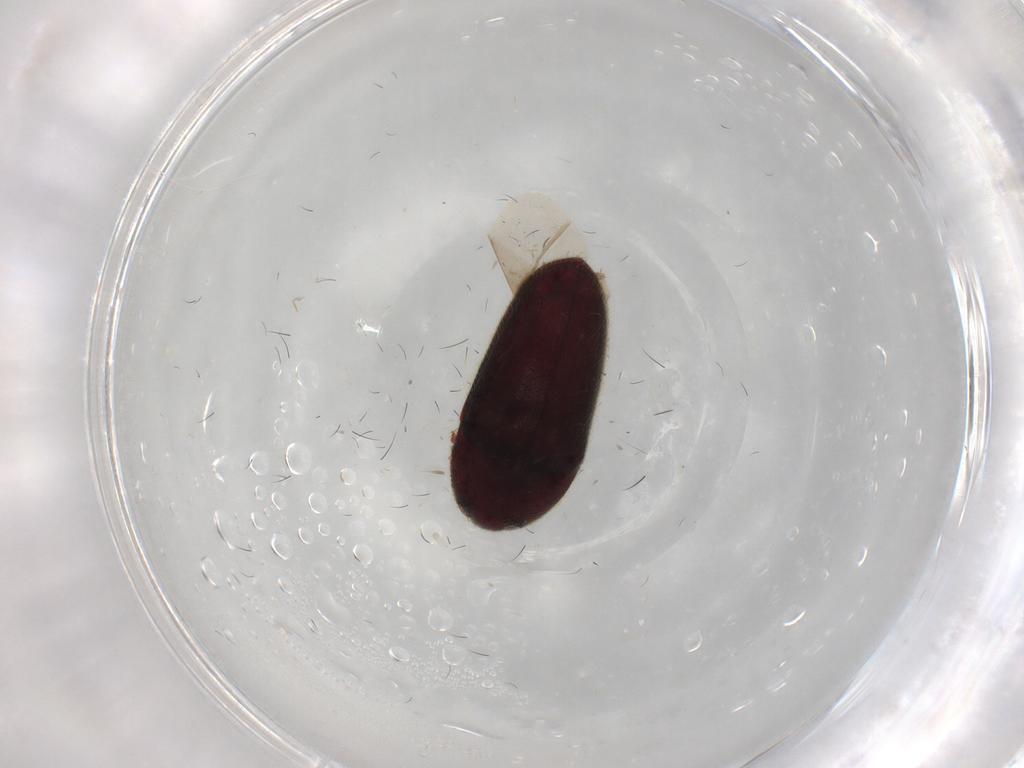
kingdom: Animalia
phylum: Arthropoda
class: Insecta
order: Coleoptera
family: Throscidae
